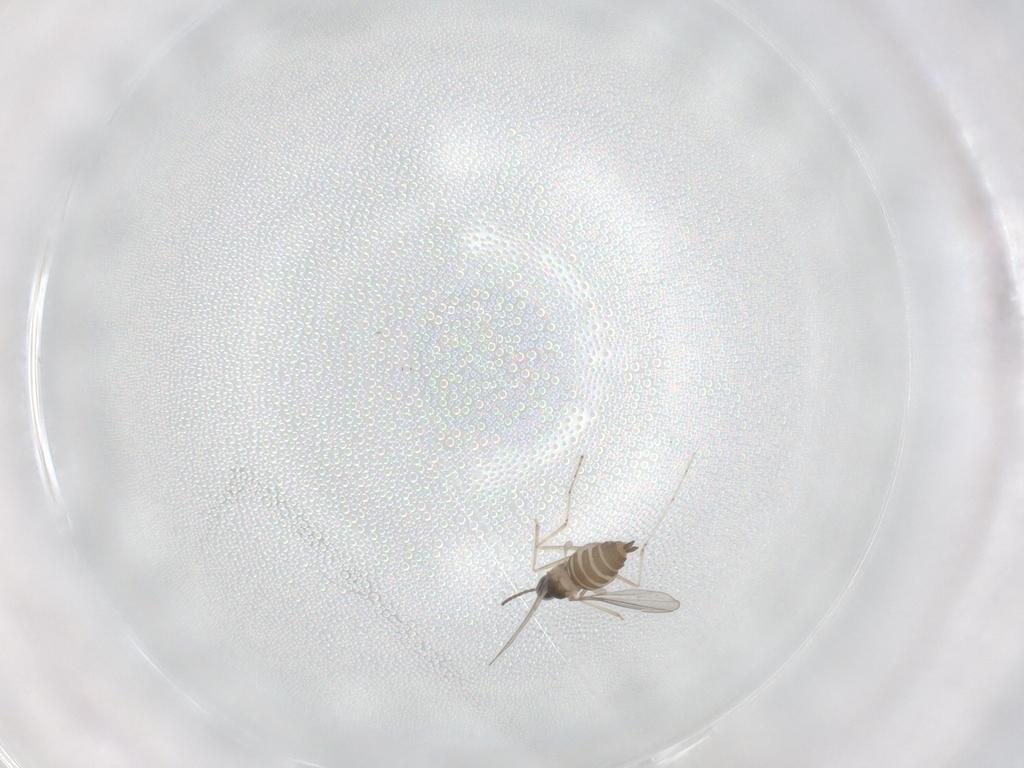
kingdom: Animalia
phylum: Arthropoda
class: Insecta
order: Diptera
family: Cecidomyiidae
